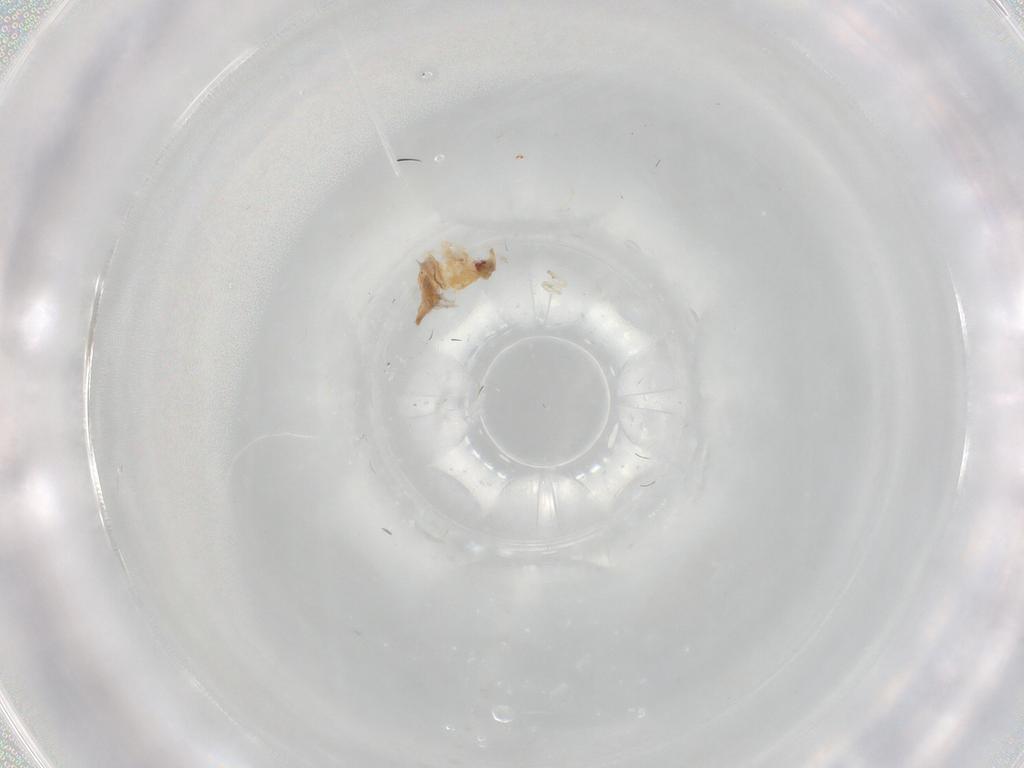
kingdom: Animalia
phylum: Arthropoda
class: Insecta
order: Hemiptera
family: Aleyrodidae
